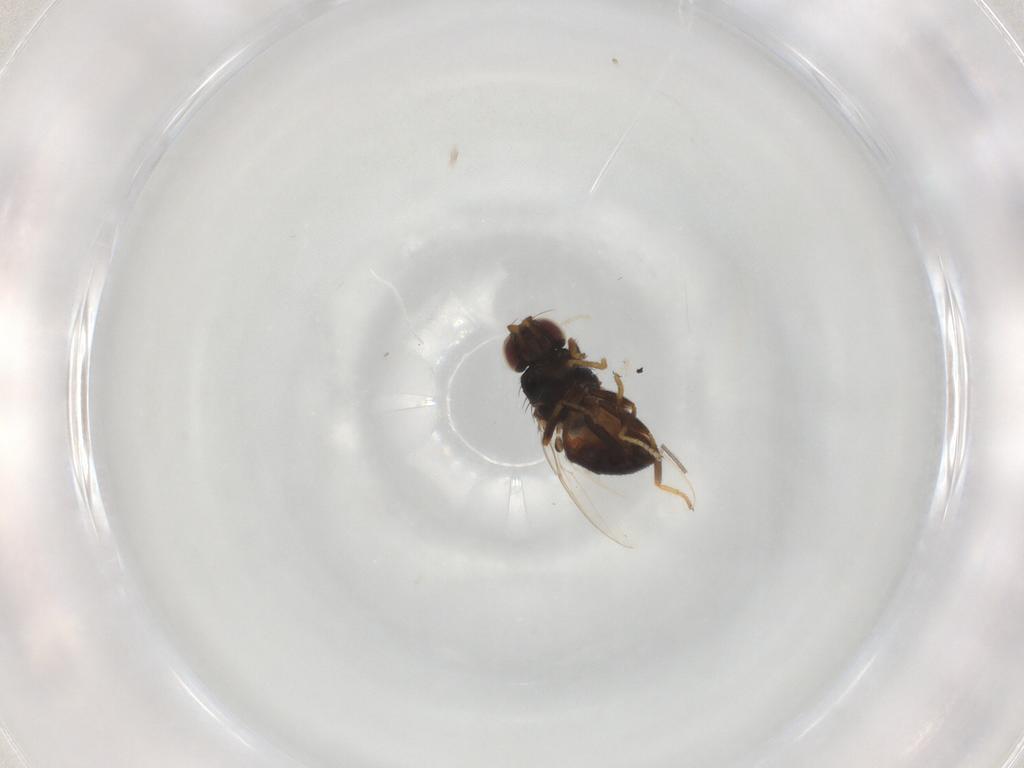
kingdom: Animalia
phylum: Arthropoda
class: Insecta
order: Diptera
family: Chloropidae
